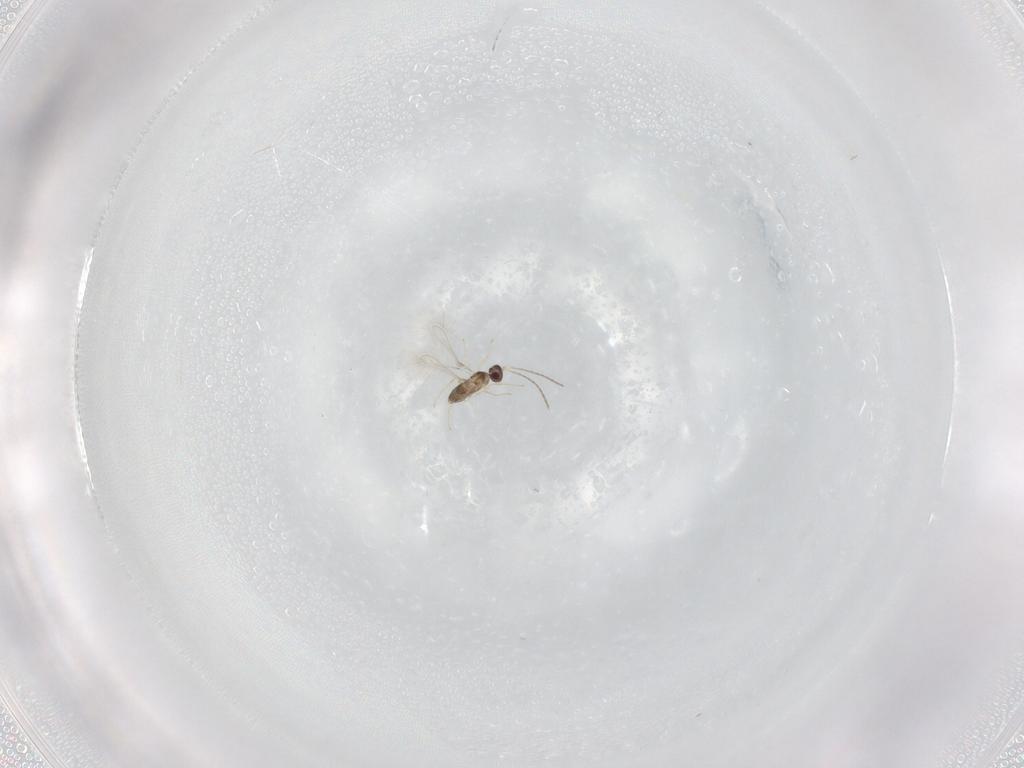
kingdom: Animalia
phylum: Arthropoda
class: Insecta
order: Hymenoptera
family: Mymaridae
